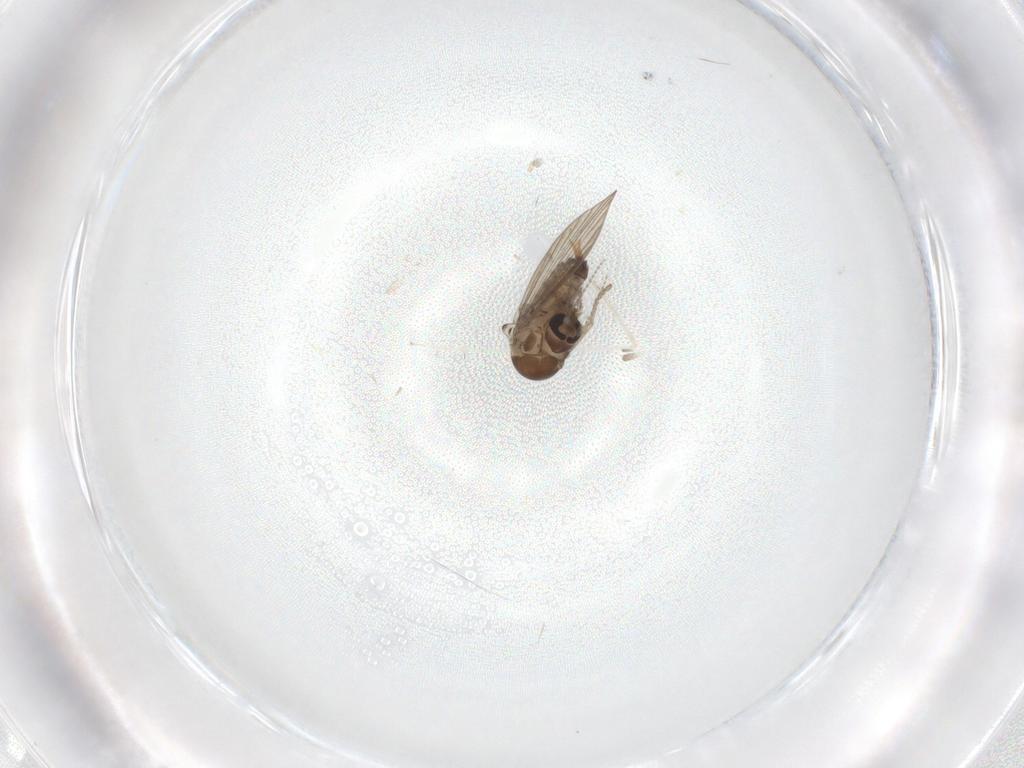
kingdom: Animalia
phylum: Arthropoda
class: Insecta
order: Diptera
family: Psychodidae
